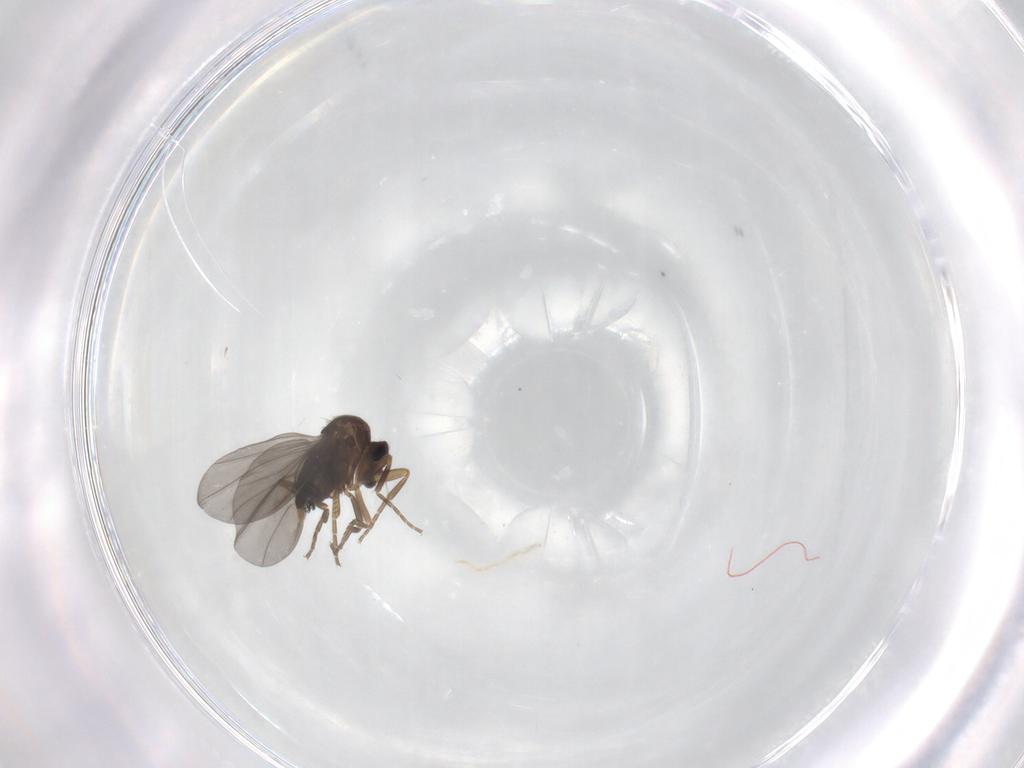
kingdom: Animalia
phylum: Arthropoda
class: Insecta
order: Diptera
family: Phoridae
